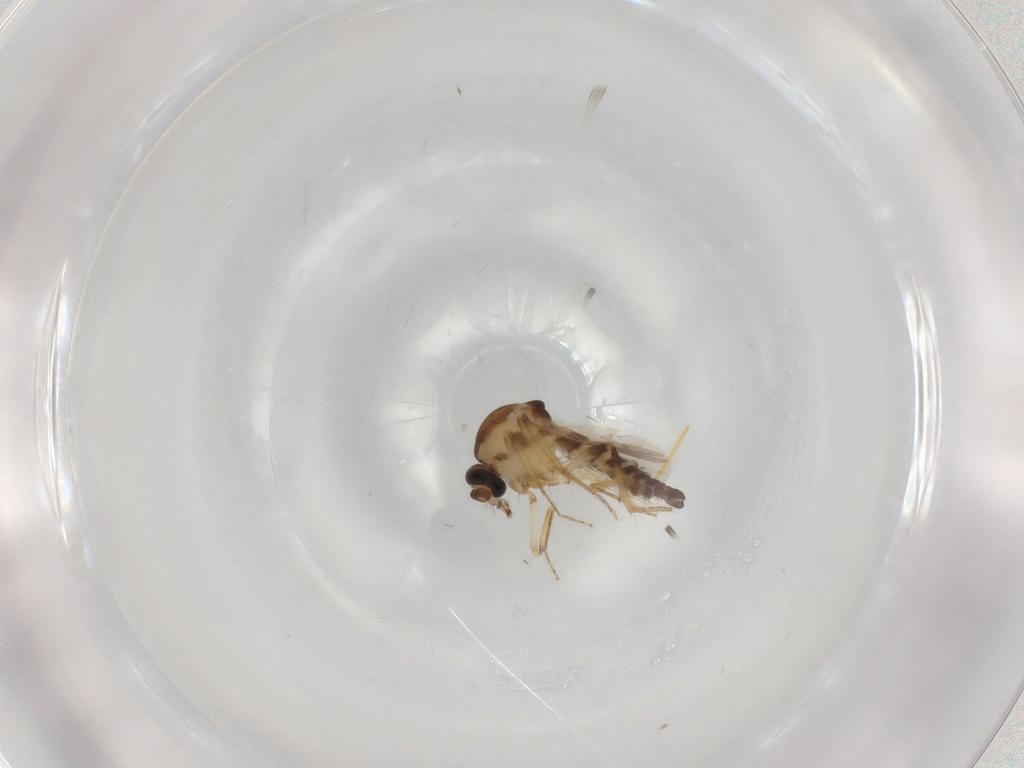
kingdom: Animalia
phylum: Arthropoda
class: Insecta
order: Diptera
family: Ceratopogonidae
